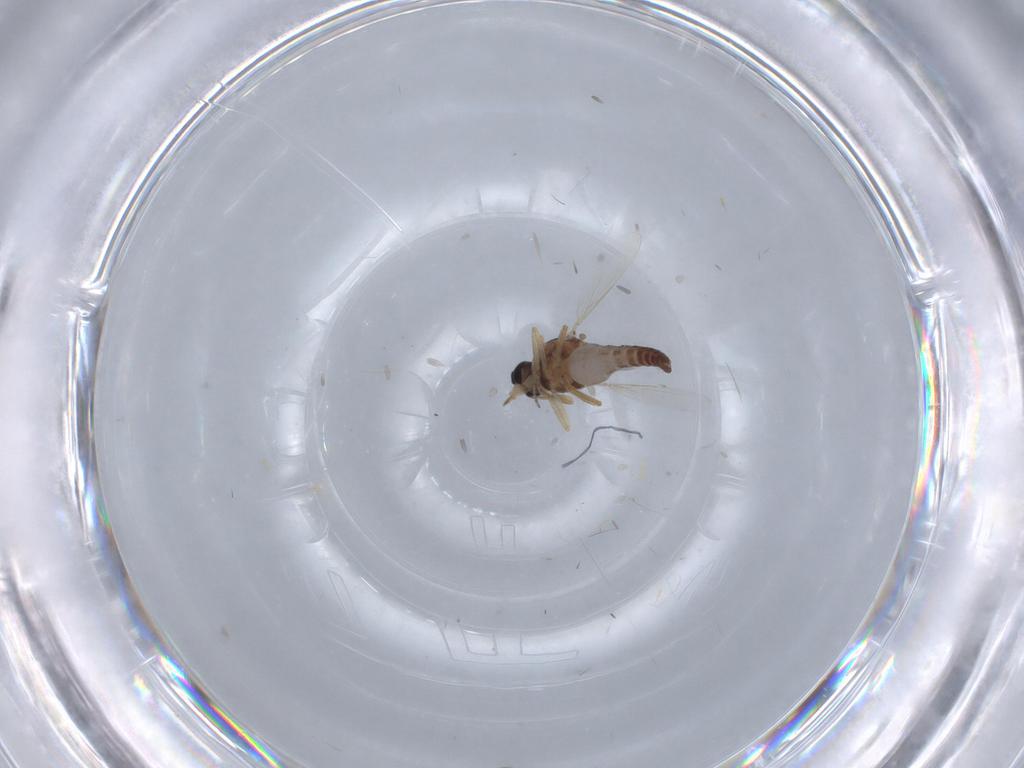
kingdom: Animalia
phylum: Arthropoda
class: Insecta
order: Diptera
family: Ceratopogonidae
